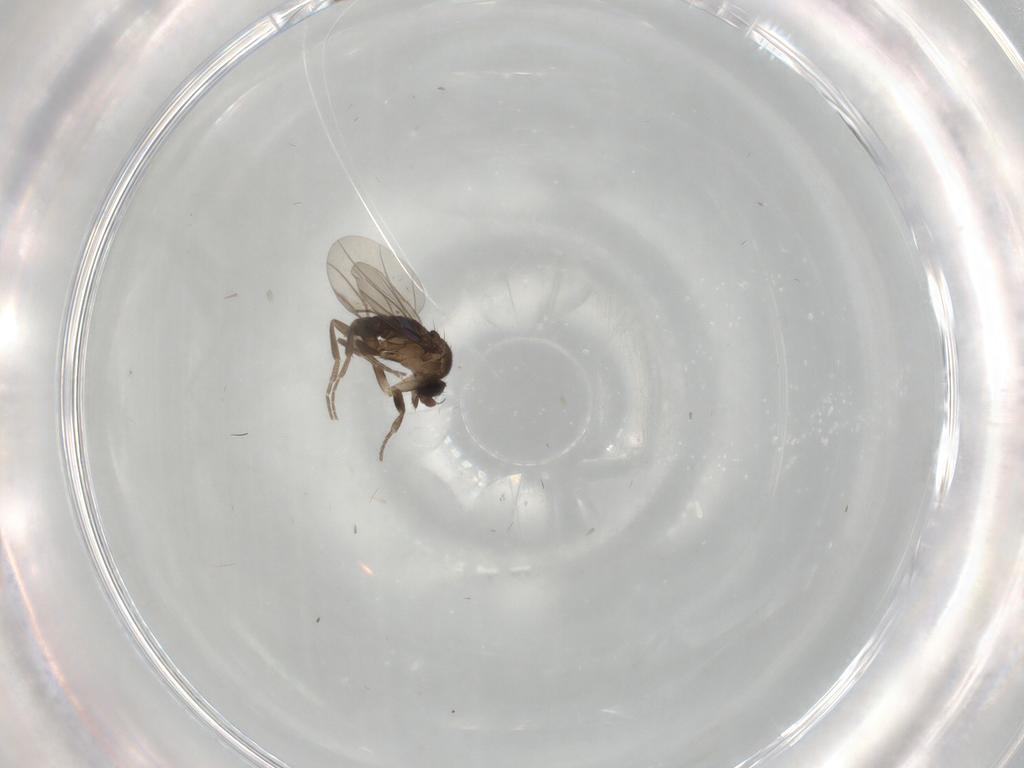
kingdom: Animalia
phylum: Arthropoda
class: Insecta
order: Diptera
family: Phoridae
